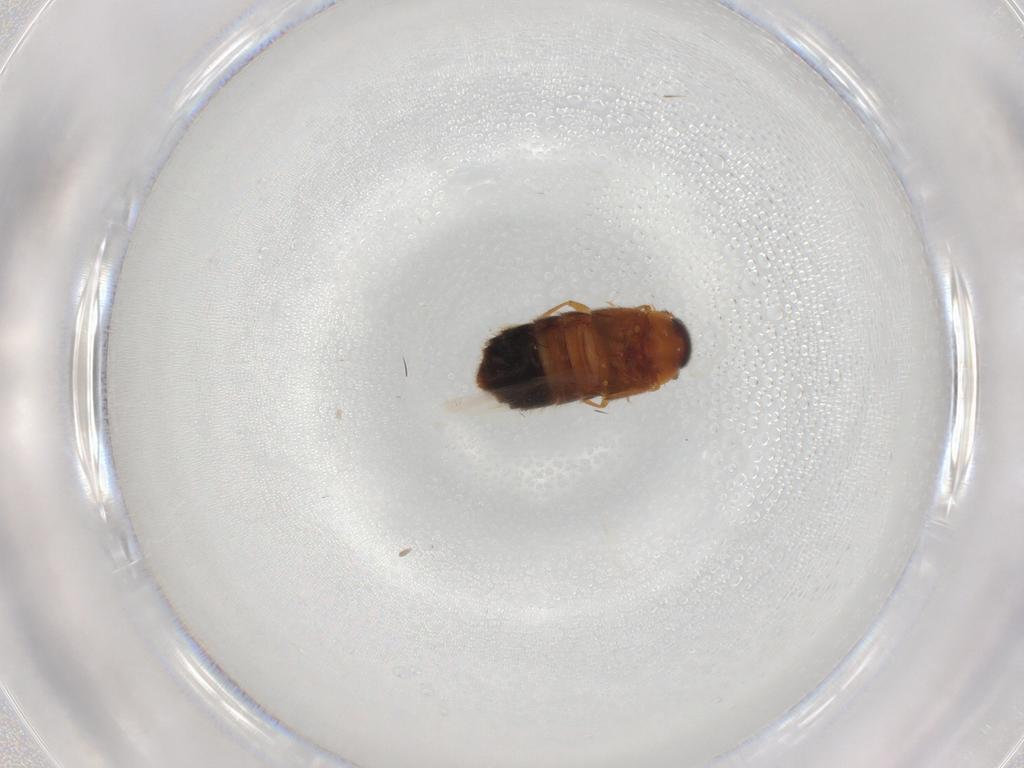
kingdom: Animalia
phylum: Arthropoda
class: Insecta
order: Coleoptera
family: Staphylinidae
